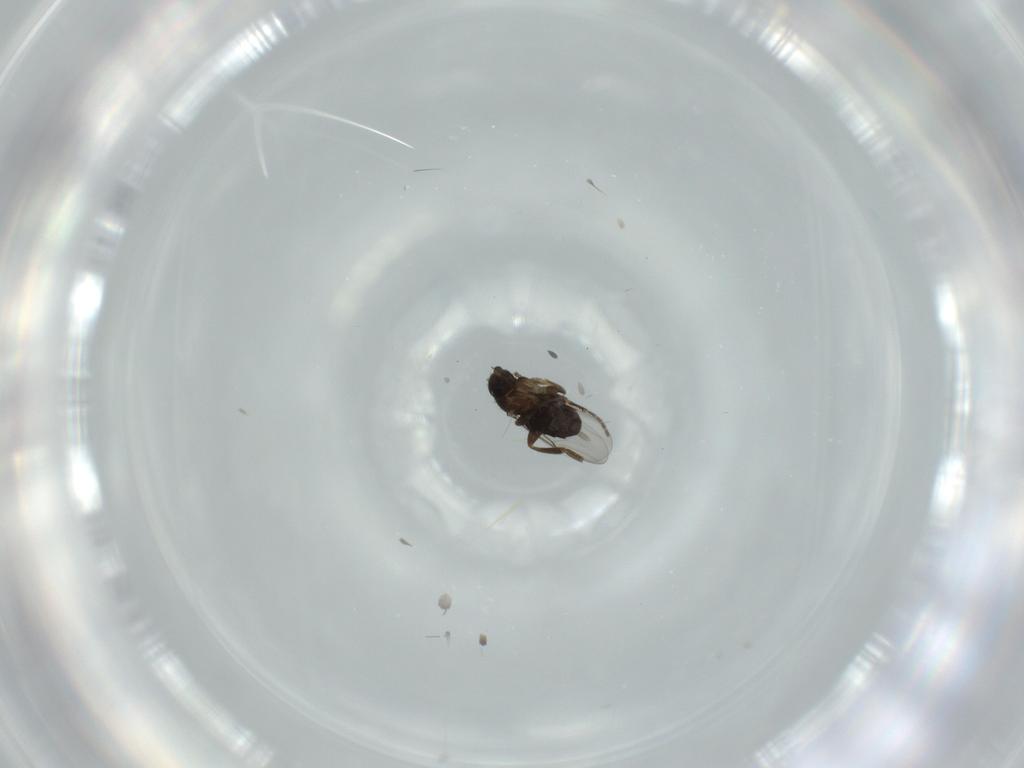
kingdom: Animalia
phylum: Arthropoda
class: Insecta
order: Diptera
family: Phoridae
